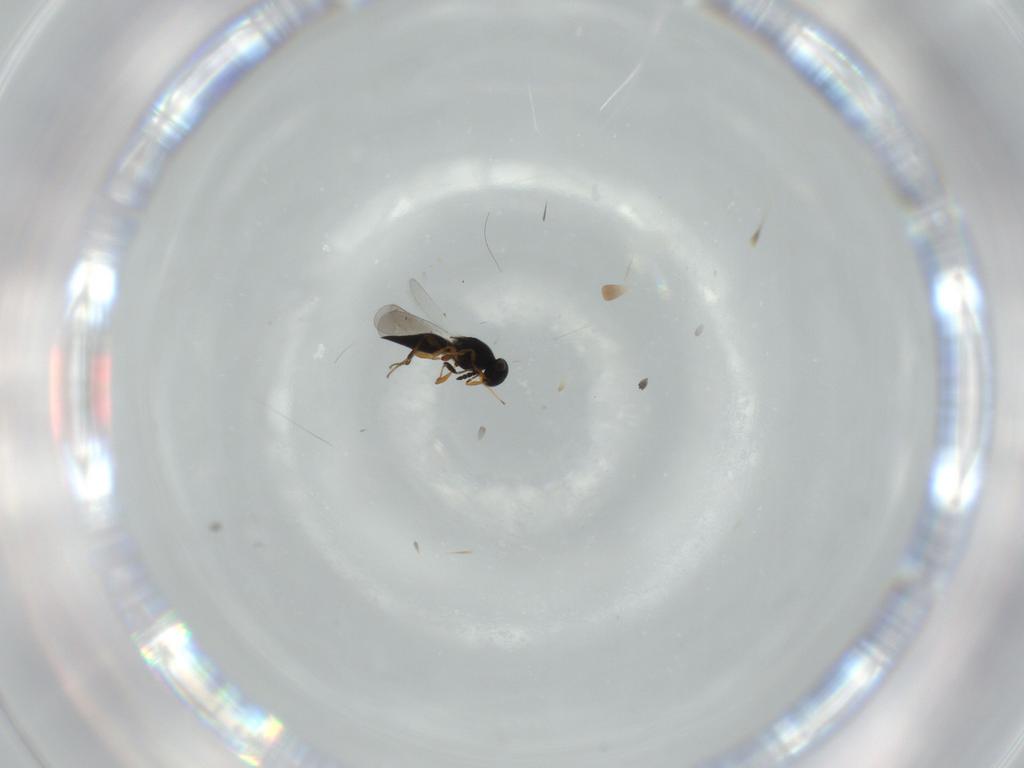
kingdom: Animalia
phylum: Arthropoda
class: Insecta
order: Hymenoptera
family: Platygastridae
